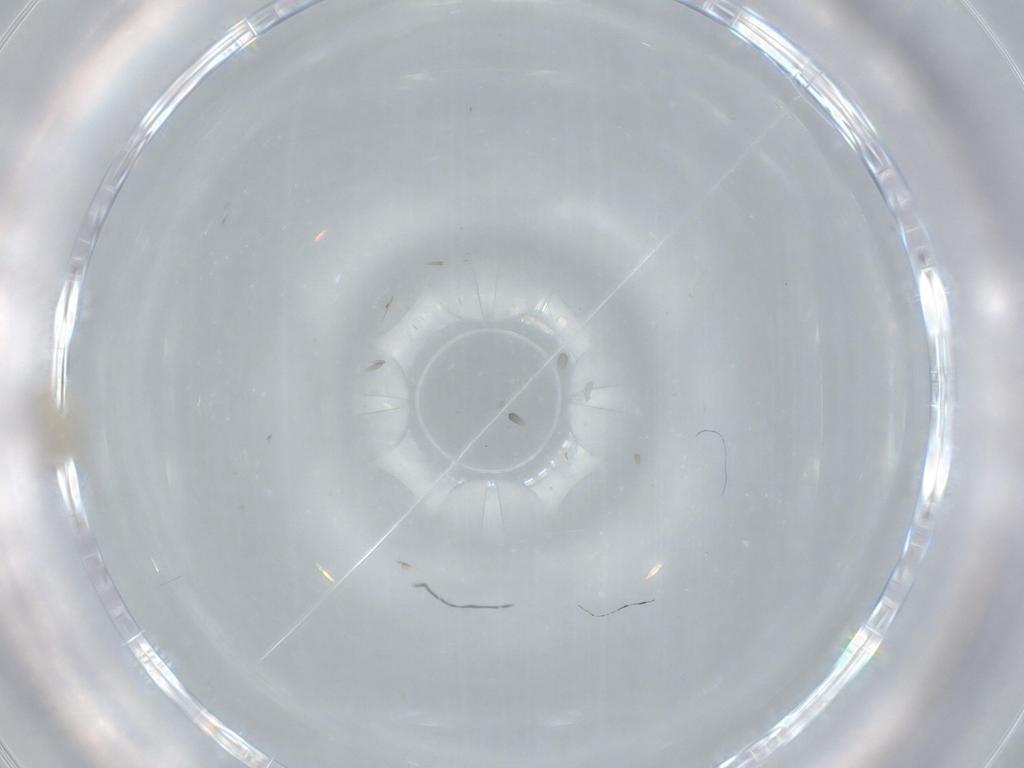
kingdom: Animalia
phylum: Arthropoda
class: Insecta
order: Diptera
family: Cecidomyiidae
